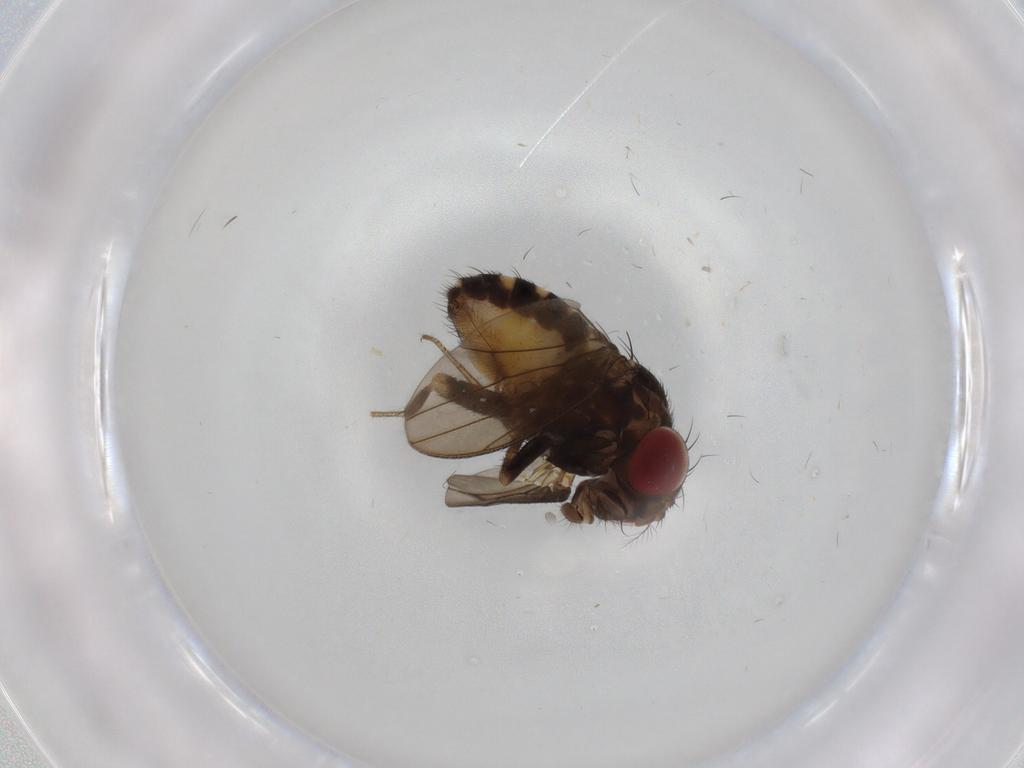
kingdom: Animalia
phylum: Arthropoda
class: Insecta
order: Diptera
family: Drosophilidae
